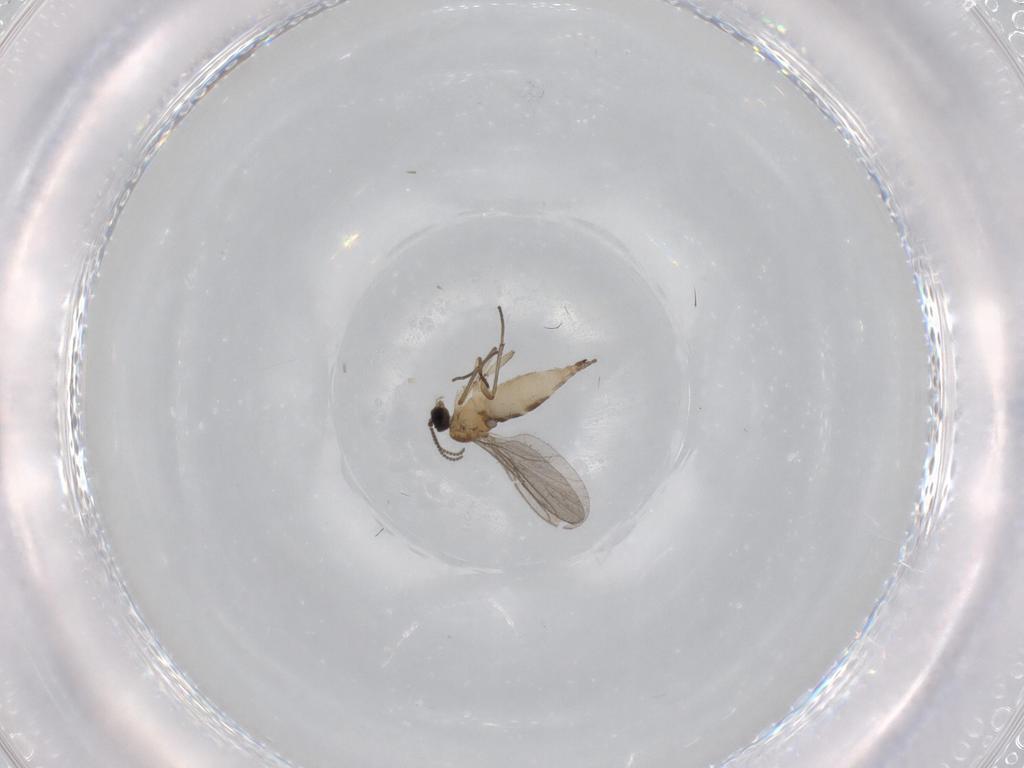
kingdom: Animalia
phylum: Arthropoda
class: Insecta
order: Diptera
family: Sciaridae
